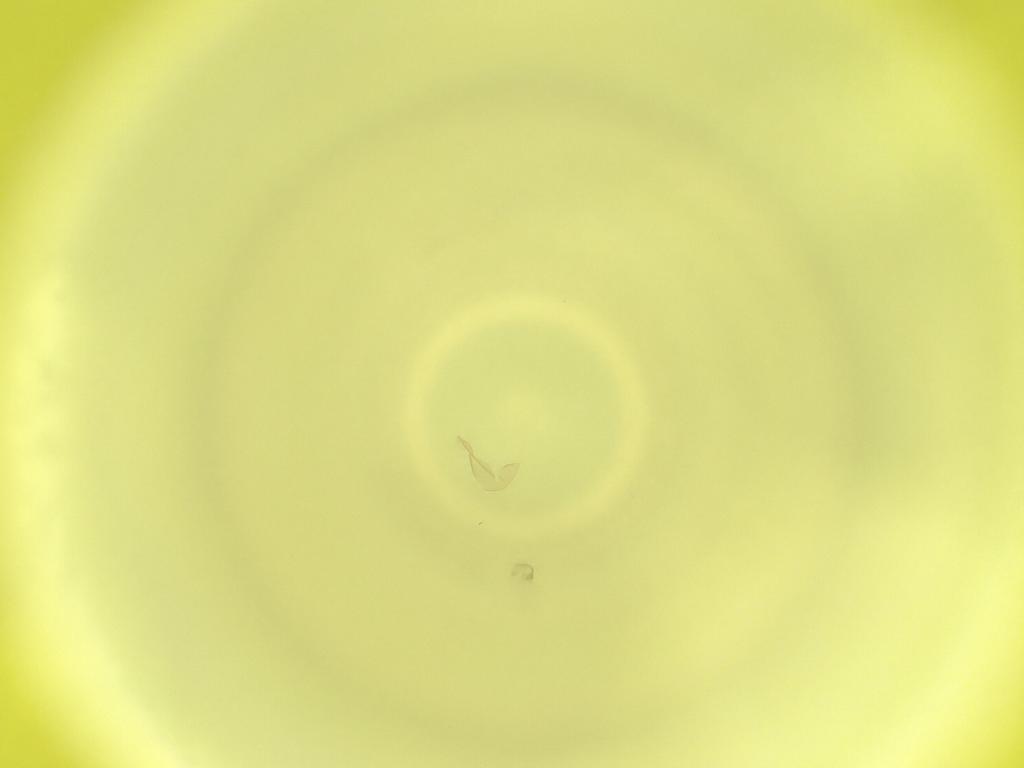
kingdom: Animalia
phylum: Arthropoda
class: Insecta
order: Diptera
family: Cecidomyiidae
